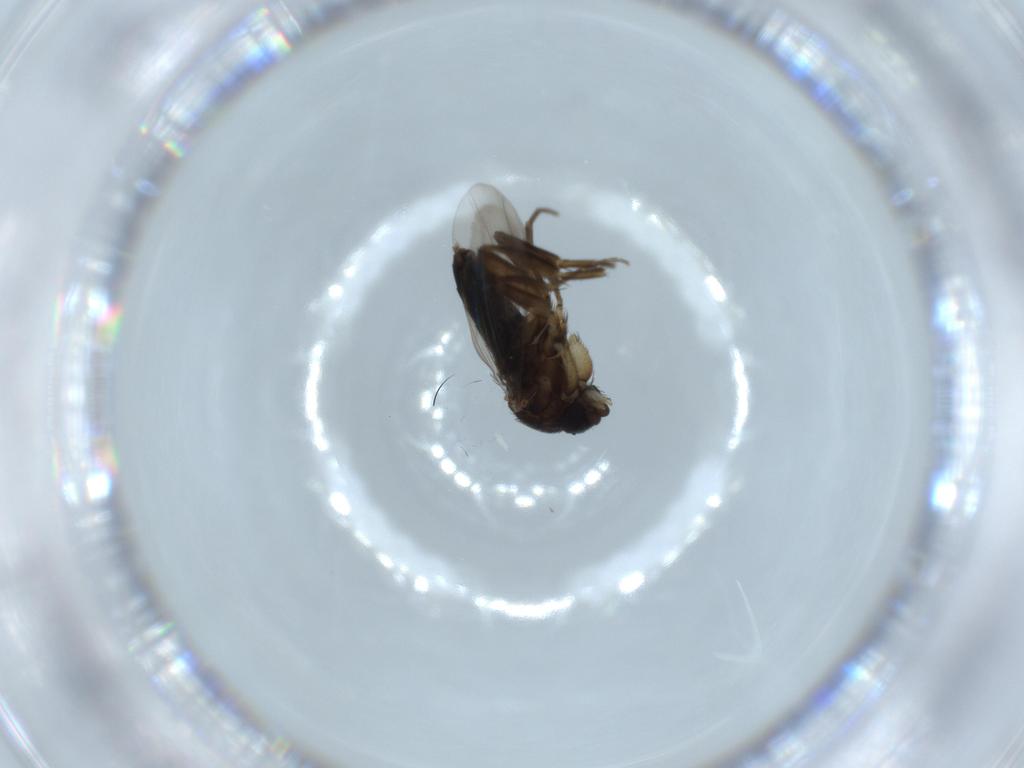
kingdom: Animalia
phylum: Arthropoda
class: Insecta
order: Diptera
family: Phoridae
